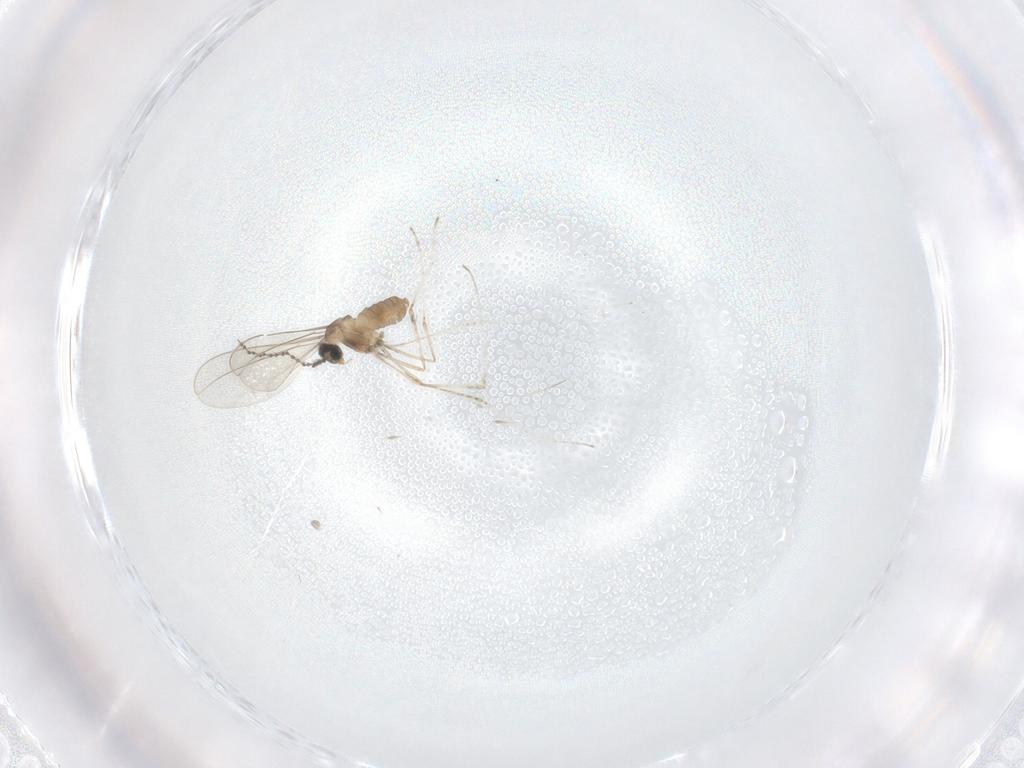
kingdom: Animalia
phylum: Arthropoda
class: Insecta
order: Diptera
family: Sciaridae
